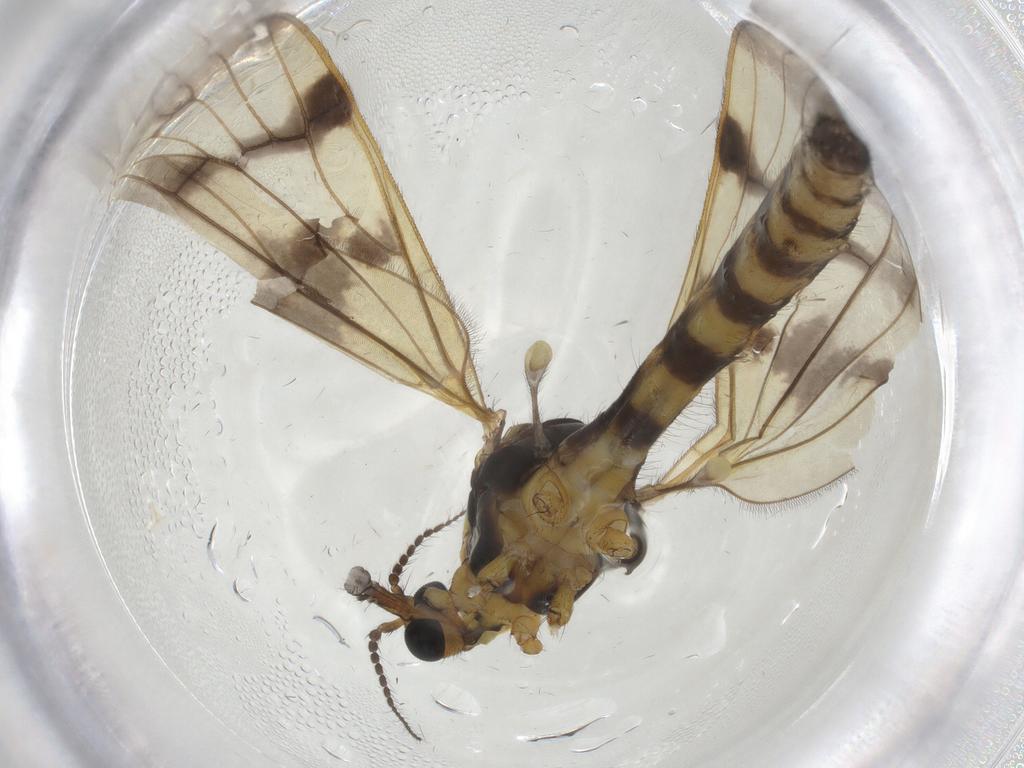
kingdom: Animalia
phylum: Arthropoda
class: Insecta
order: Diptera
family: Limoniidae
